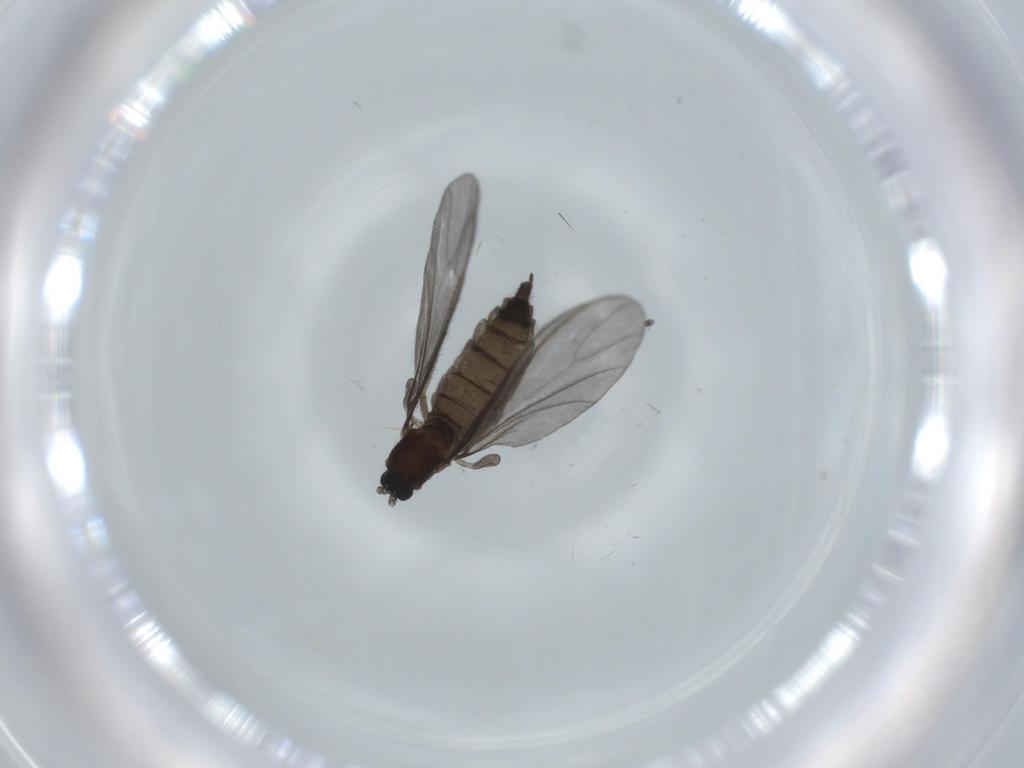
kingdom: Animalia
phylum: Arthropoda
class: Insecta
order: Diptera
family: Sciaridae
